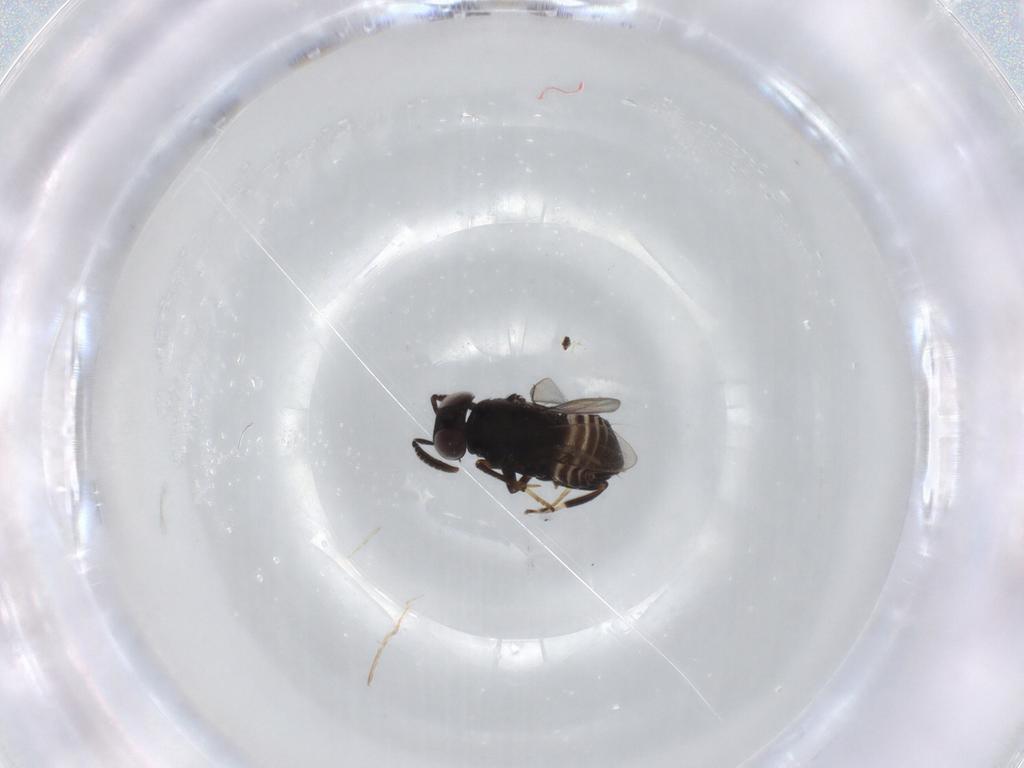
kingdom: Animalia
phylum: Arthropoda
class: Insecta
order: Hymenoptera
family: Encyrtidae
